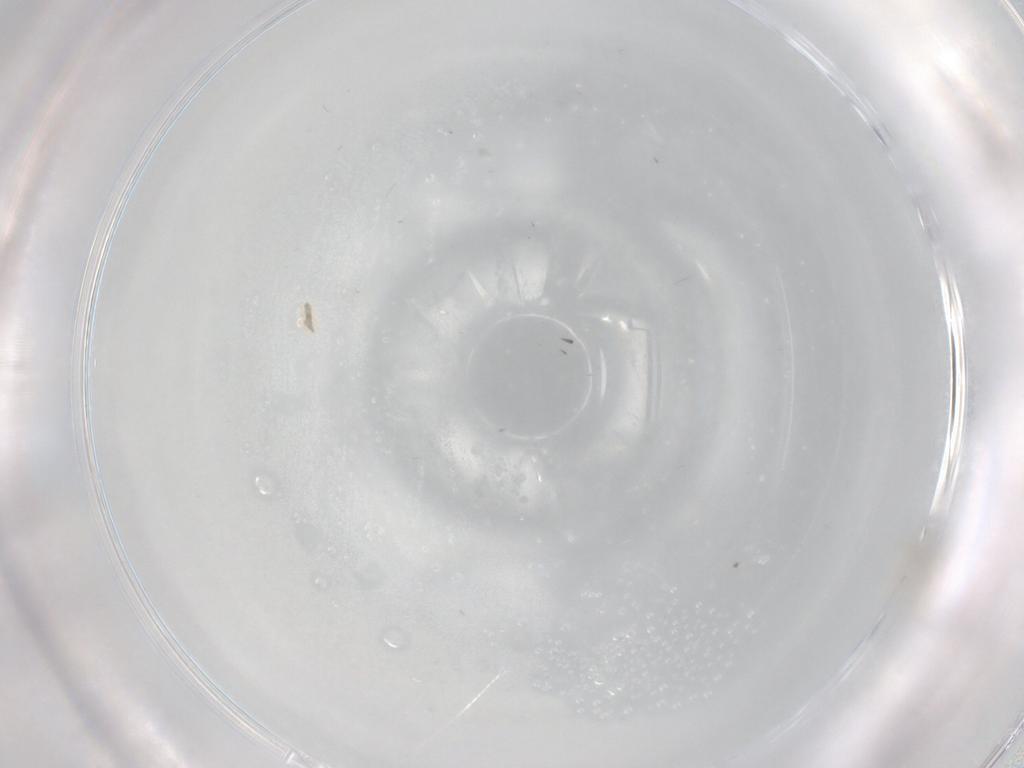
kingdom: Animalia
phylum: Arthropoda
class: Insecta
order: Diptera
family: Cecidomyiidae
